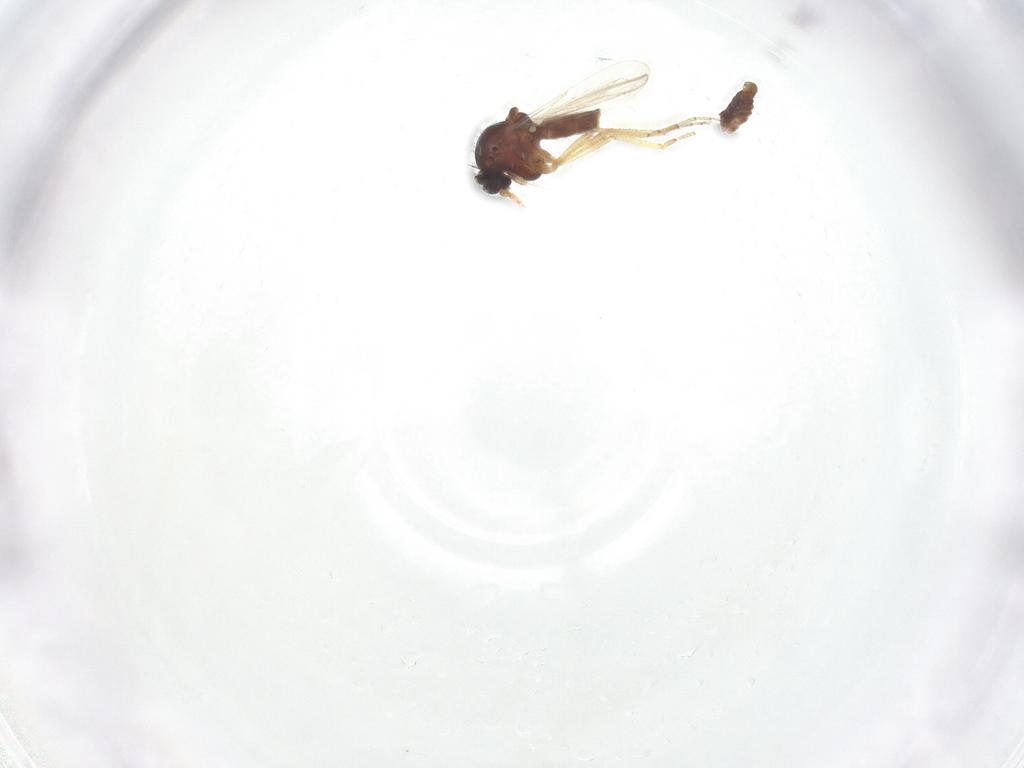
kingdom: Animalia
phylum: Arthropoda
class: Insecta
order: Diptera
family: Ceratopogonidae
